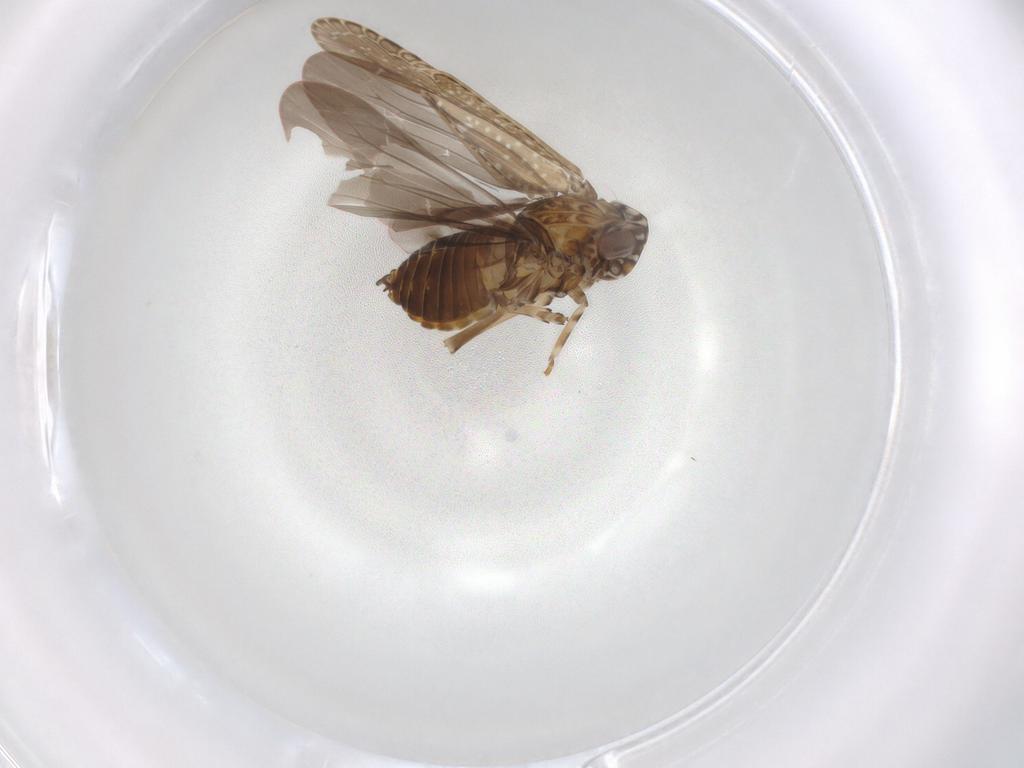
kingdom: Animalia
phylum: Arthropoda
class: Insecta
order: Hemiptera
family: Achilidae
